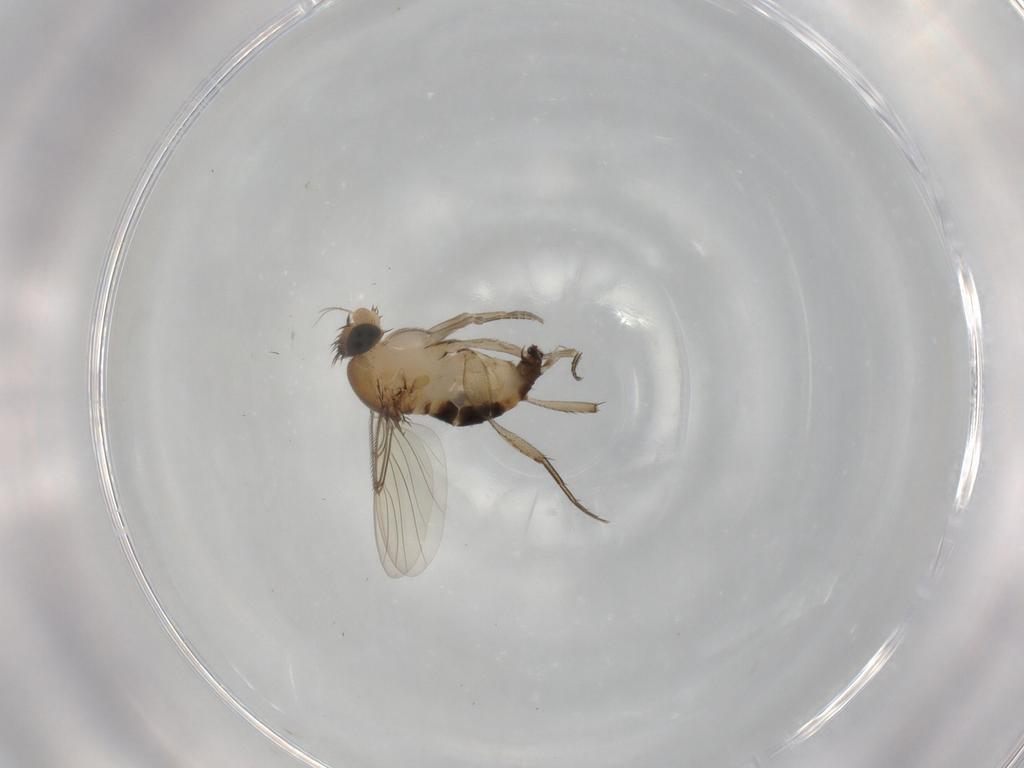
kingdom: Animalia
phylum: Arthropoda
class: Insecta
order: Diptera
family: Phoridae
